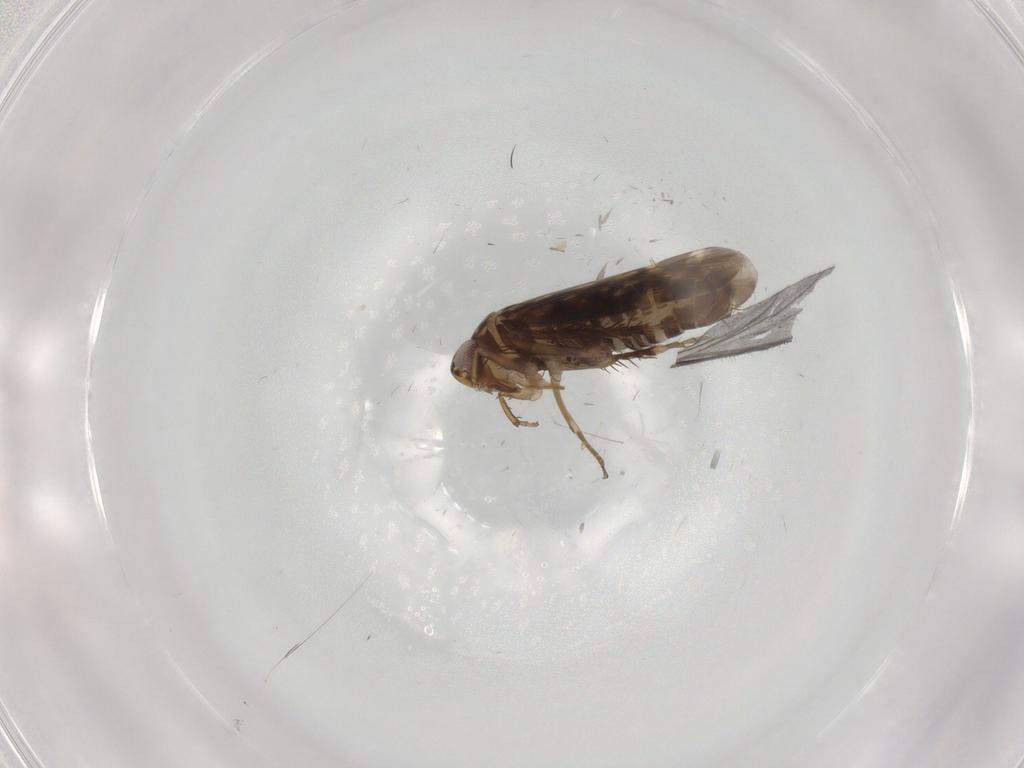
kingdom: Animalia
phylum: Arthropoda
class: Insecta
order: Hemiptera
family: Cicadellidae
